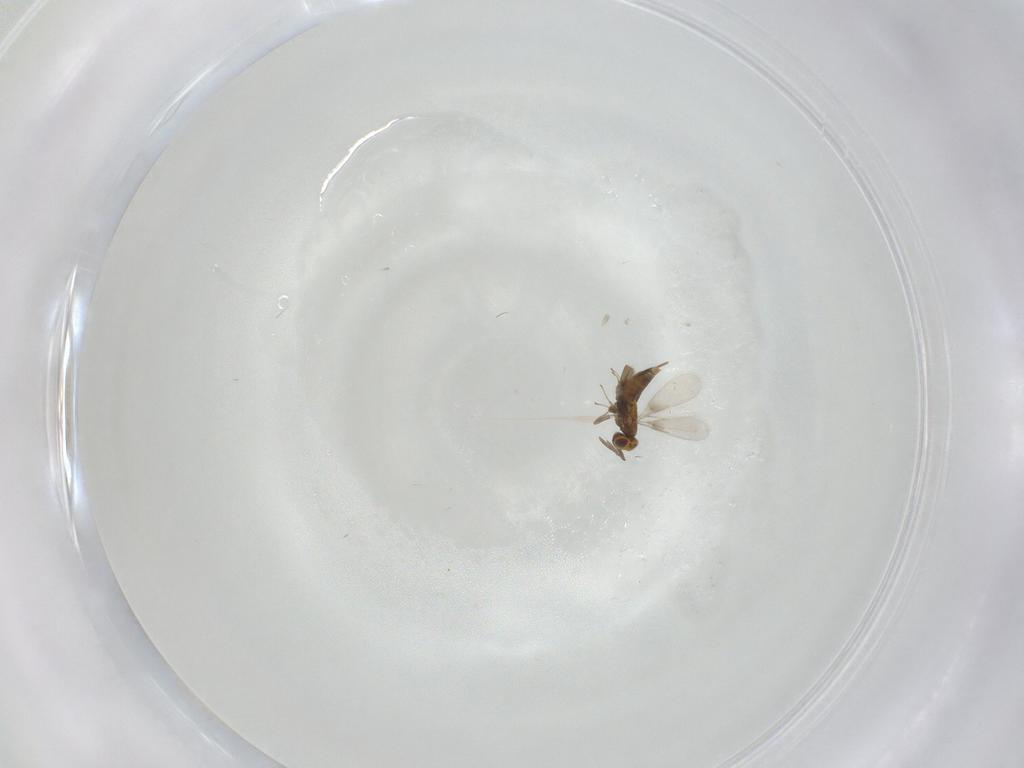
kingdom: Animalia
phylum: Arthropoda
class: Insecta
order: Hymenoptera
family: Aphelinidae
